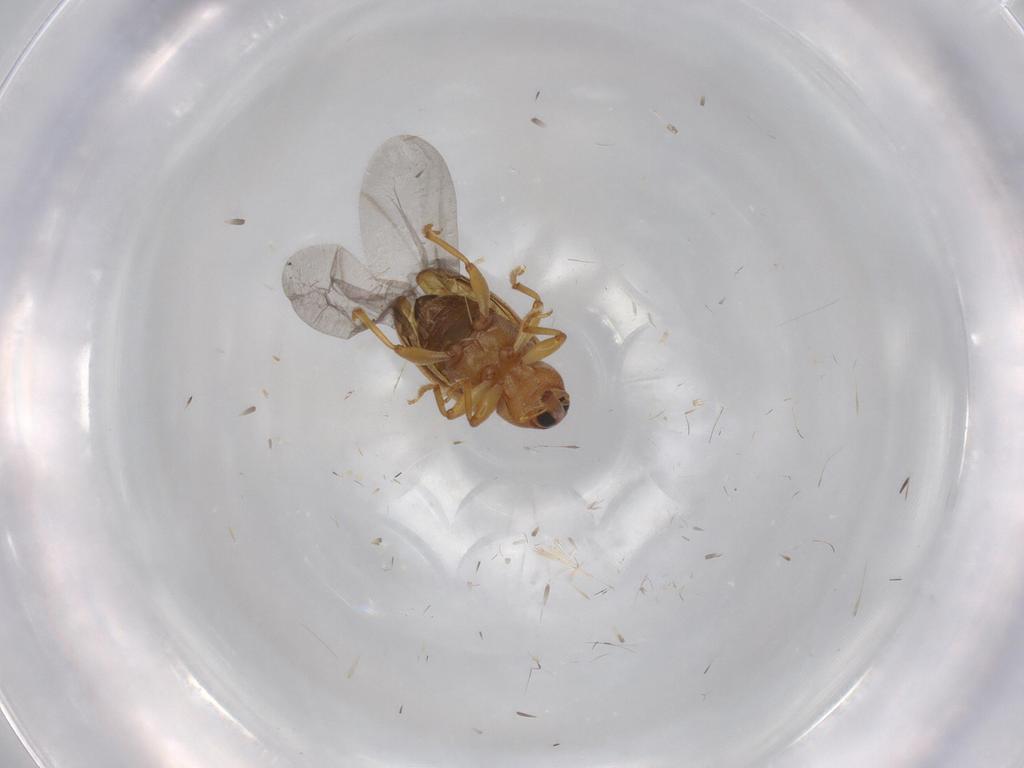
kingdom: Animalia
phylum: Arthropoda
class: Insecta
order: Coleoptera
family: Curculionidae
